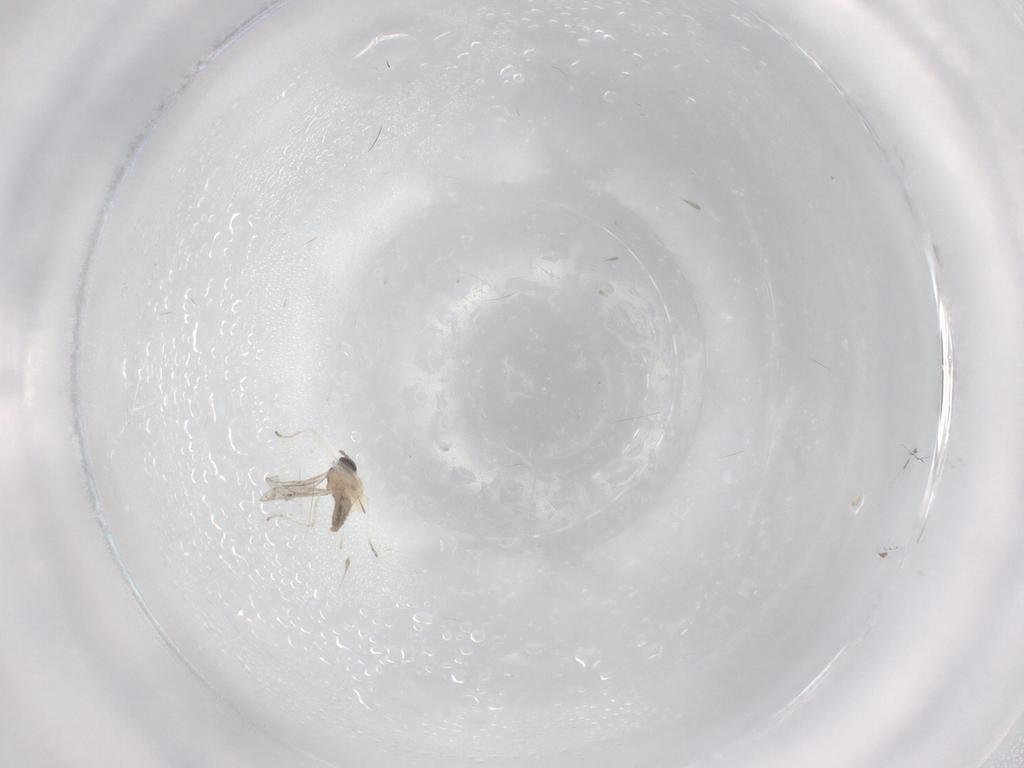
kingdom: Animalia
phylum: Arthropoda
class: Insecta
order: Diptera
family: Cecidomyiidae
